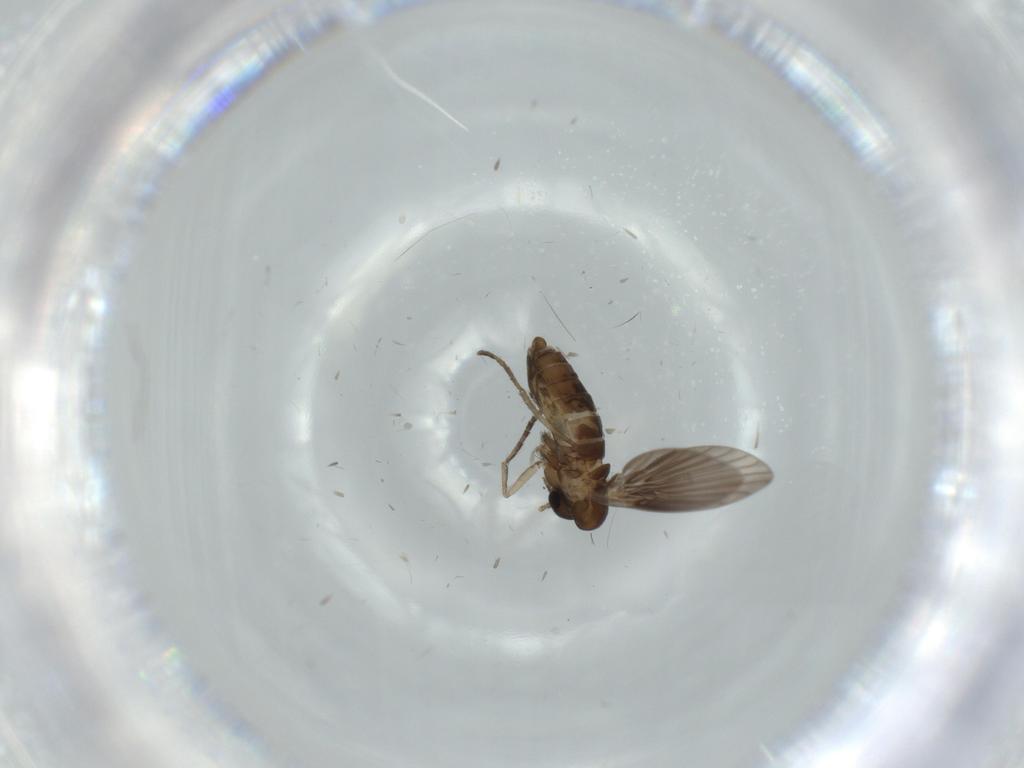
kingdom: Animalia
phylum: Arthropoda
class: Insecta
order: Diptera
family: Psychodidae
